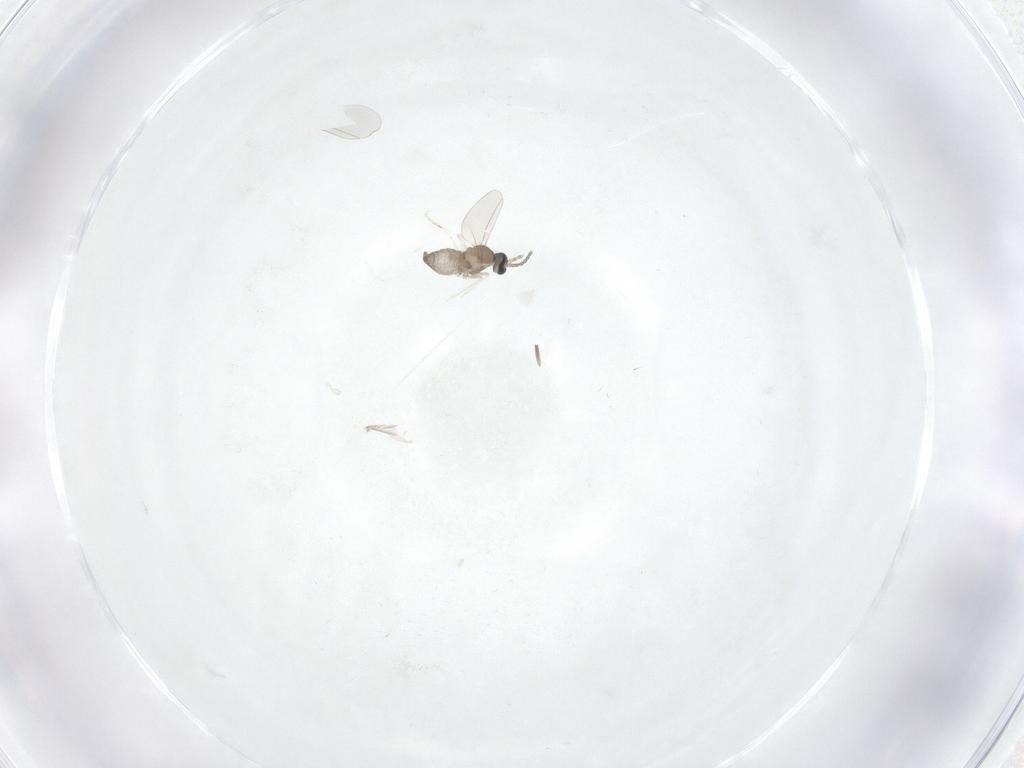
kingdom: Animalia
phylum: Arthropoda
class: Insecta
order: Diptera
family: Cecidomyiidae
